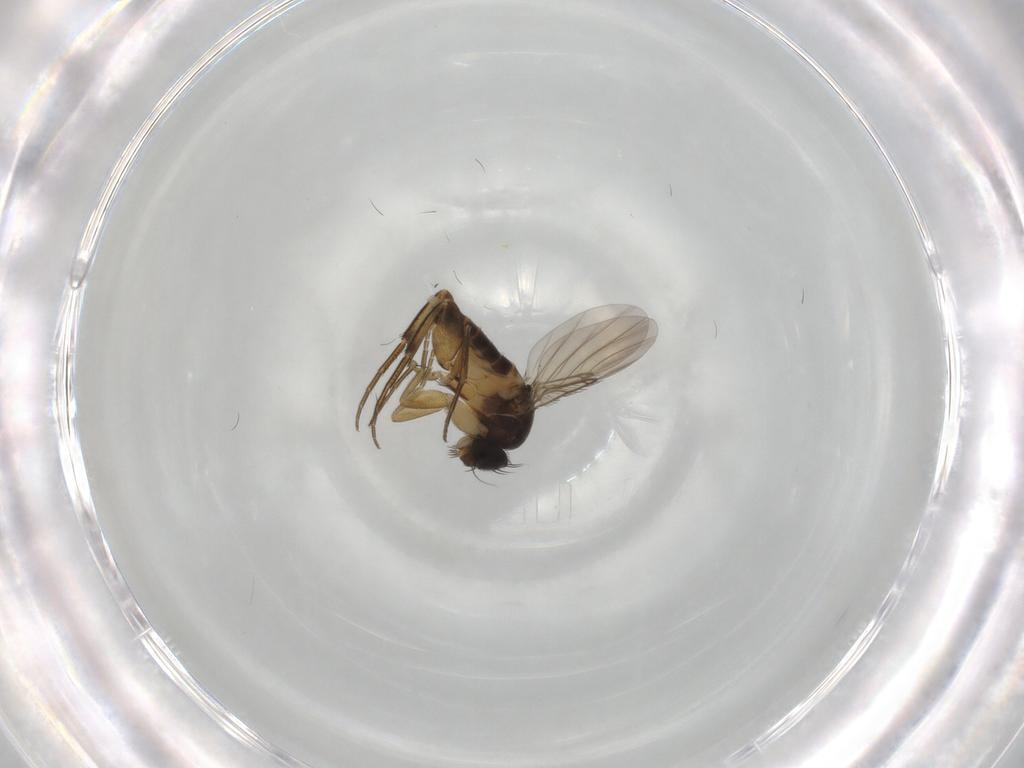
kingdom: Animalia
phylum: Arthropoda
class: Insecta
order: Diptera
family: Phoridae
